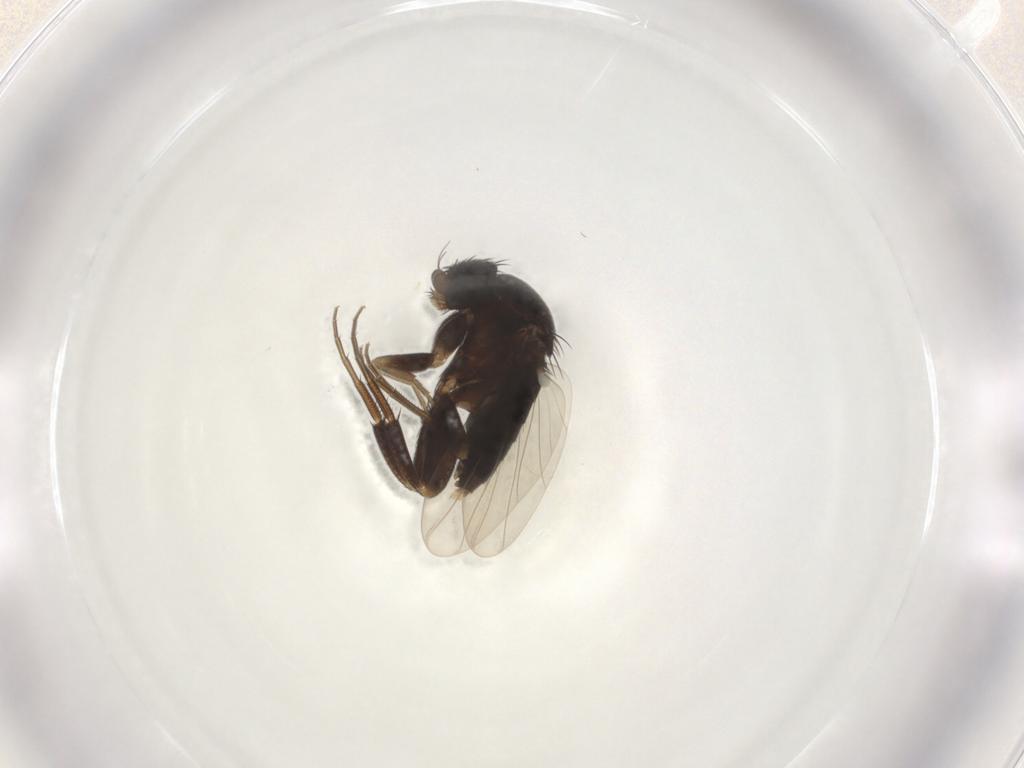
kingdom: Animalia
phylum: Arthropoda
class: Insecta
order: Diptera
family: Phoridae
